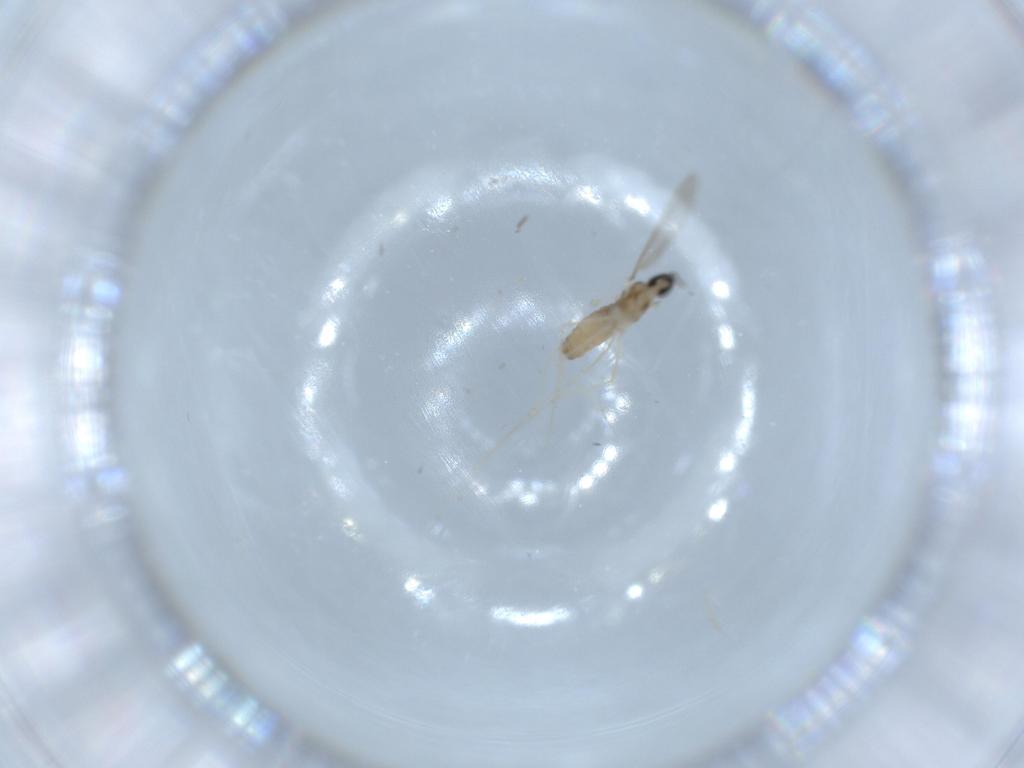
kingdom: Animalia
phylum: Arthropoda
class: Insecta
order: Diptera
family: Cecidomyiidae
